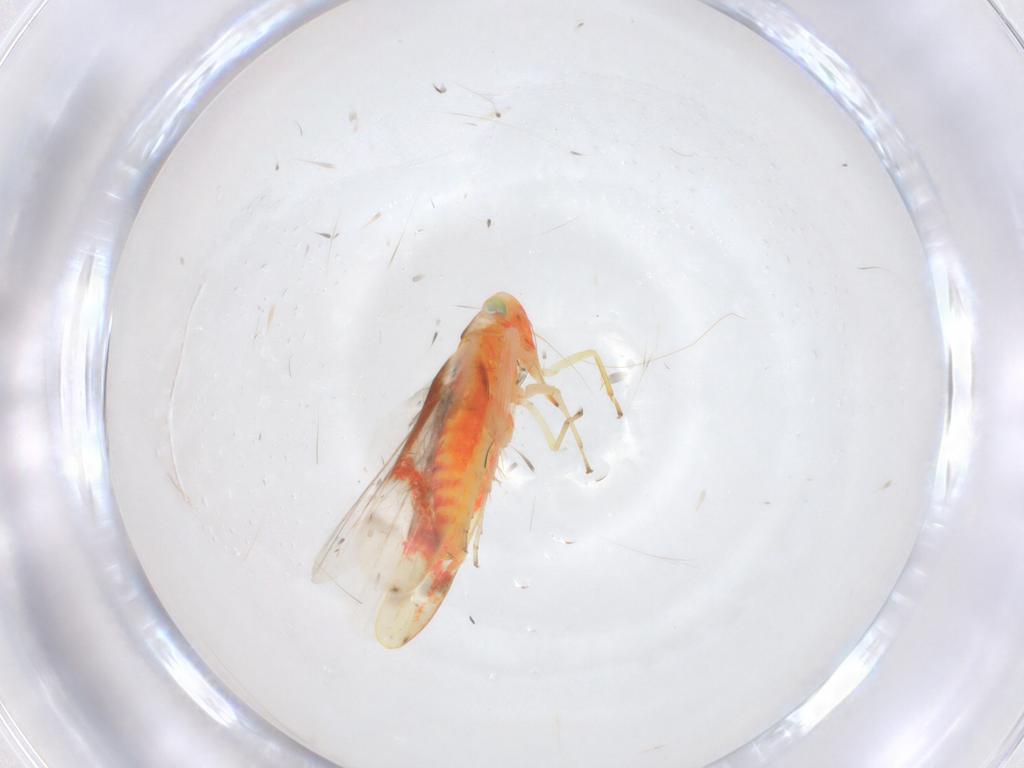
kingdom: Animalia
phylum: Arthropoda
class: Insecta
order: Hemiptera
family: Cicadellidae
